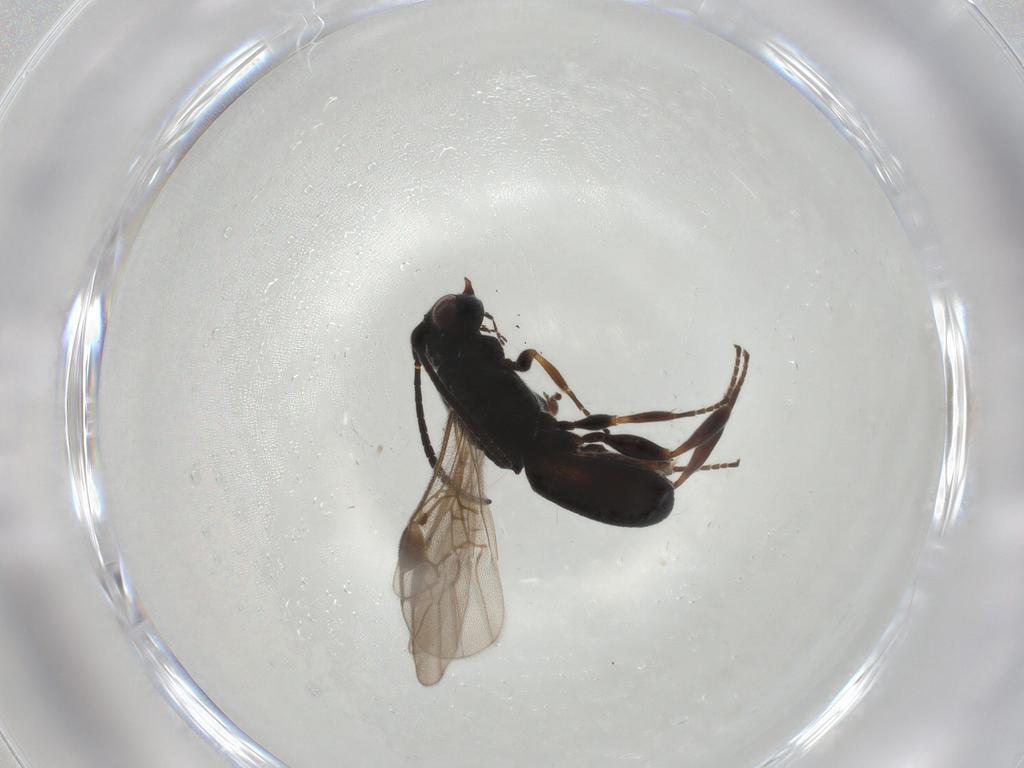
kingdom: Animalia
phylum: Arthropoda
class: Insecta
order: Hymenoptera
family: Braconidae
